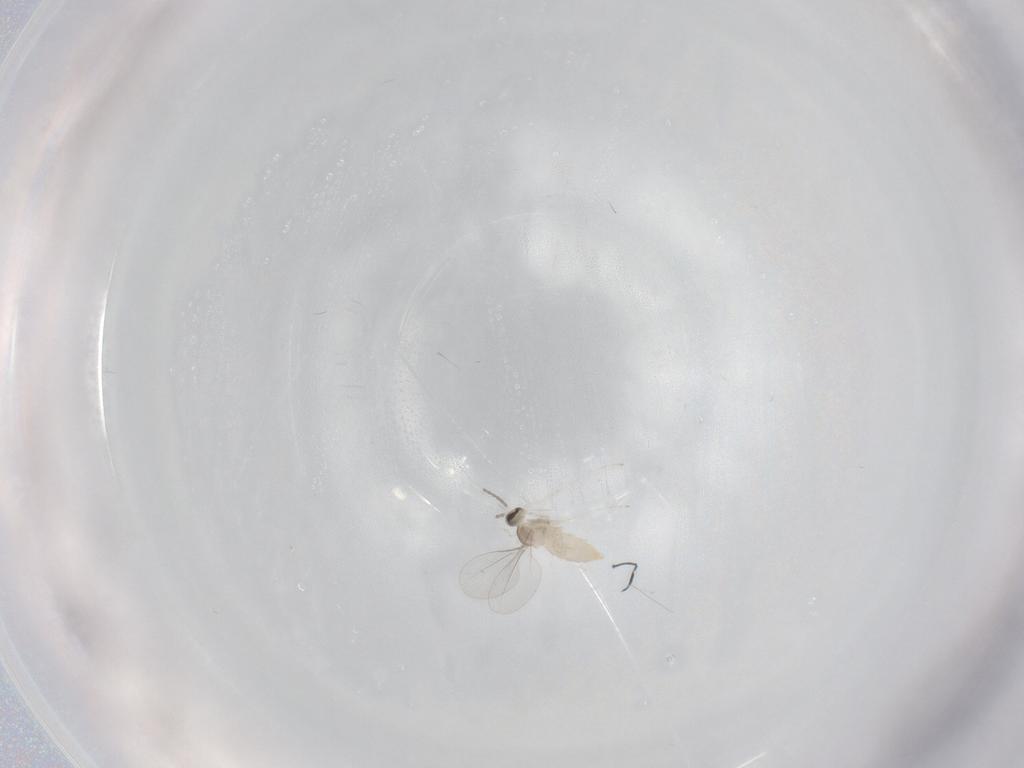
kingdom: Animalia
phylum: Arthropoda
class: Insecta
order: Diptera
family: Cecidomyiidae
